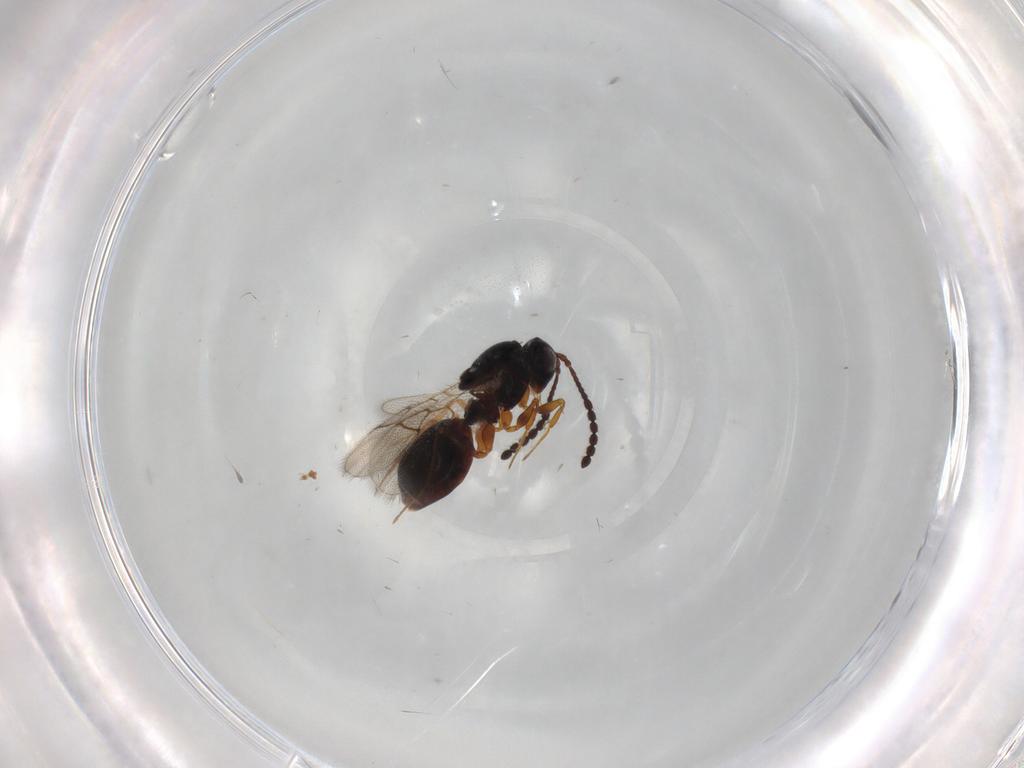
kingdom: Animalia
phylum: Arthropoda
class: Insecta
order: Hymenoptera
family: Figitidae
